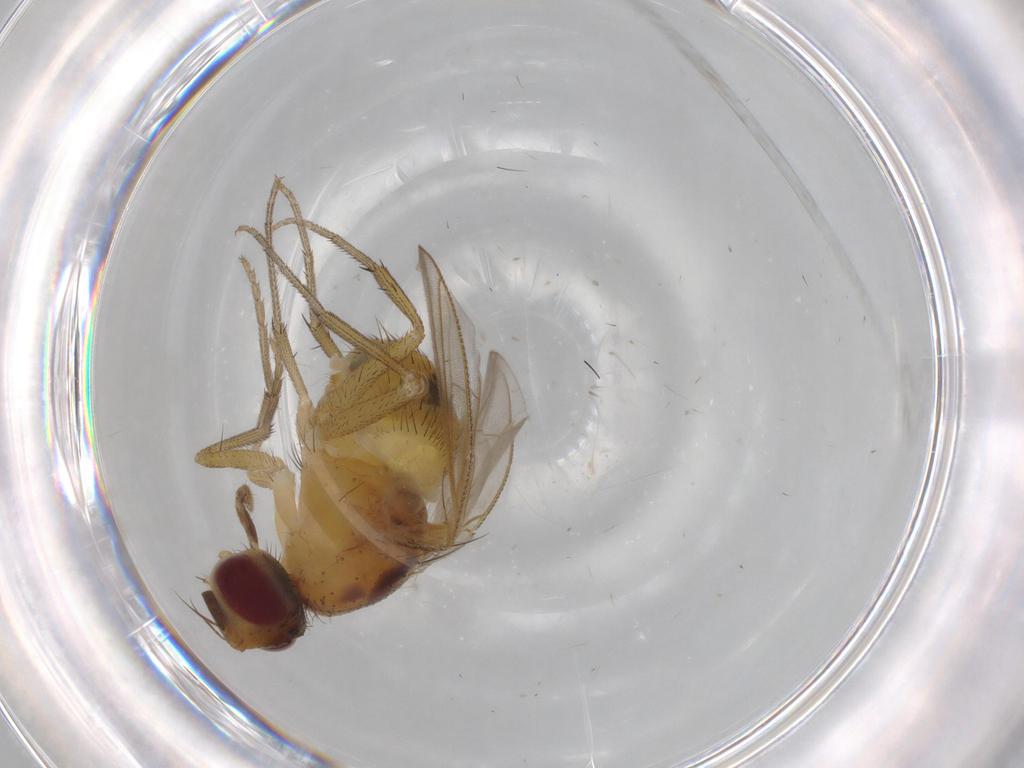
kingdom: Animalia
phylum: Arthropoda
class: Insecta
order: Diptera
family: Muscidae
